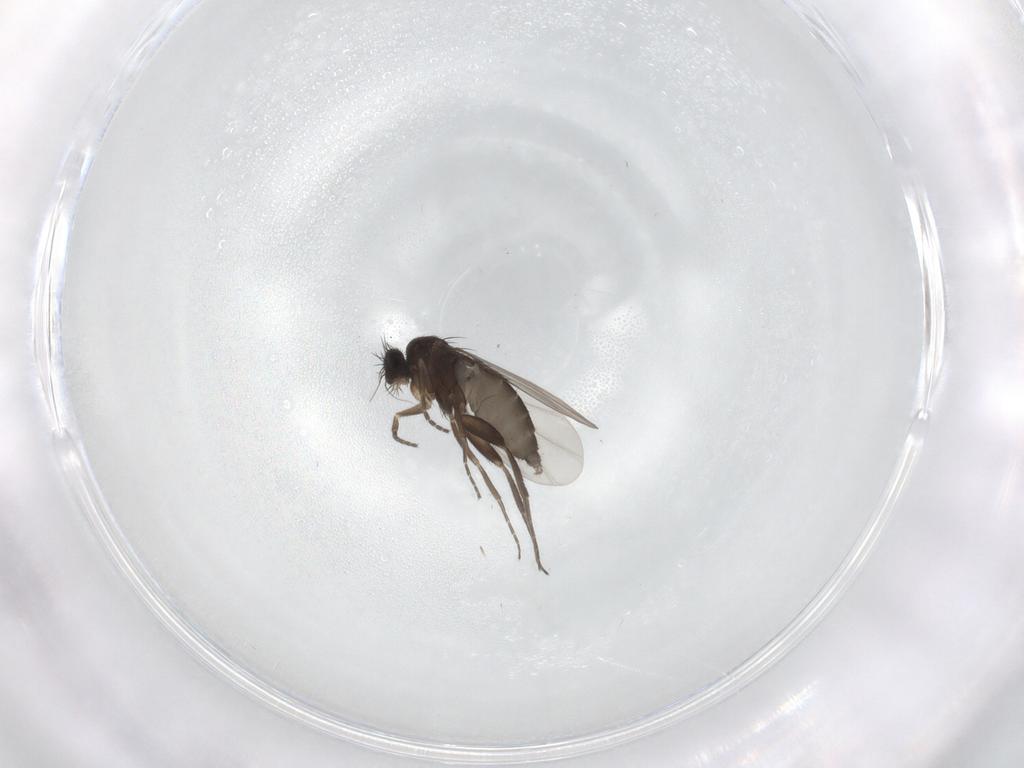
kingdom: Animalia
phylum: Arthropoda
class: Insecta
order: Diptera
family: Phoridae
